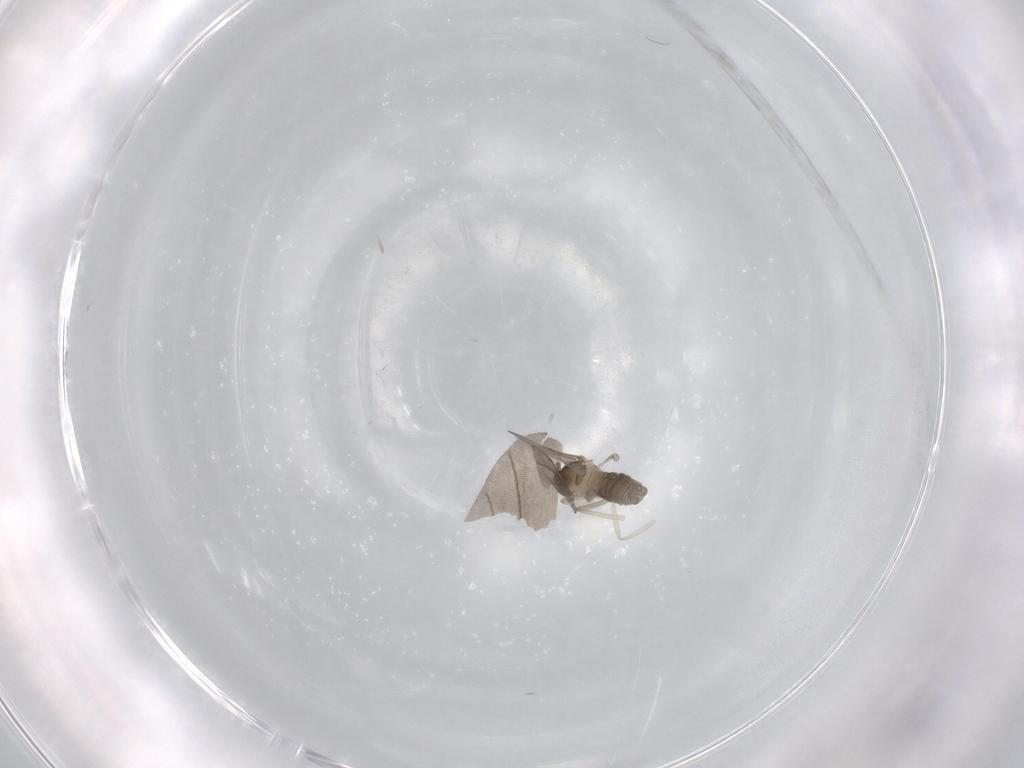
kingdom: Animalia
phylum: Arthropoda
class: Insecta
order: Diptera
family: Cecidomyiidae
